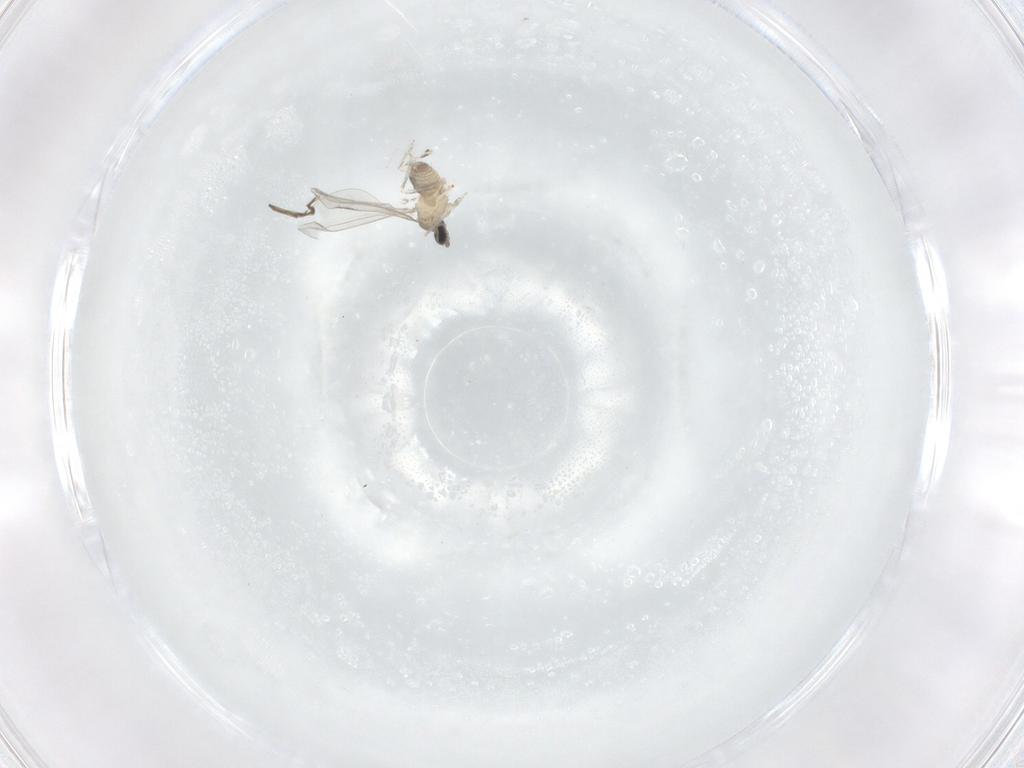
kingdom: Animalia
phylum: Arthropoda
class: Insecta
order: Diptera
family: Cecidomyiidae
